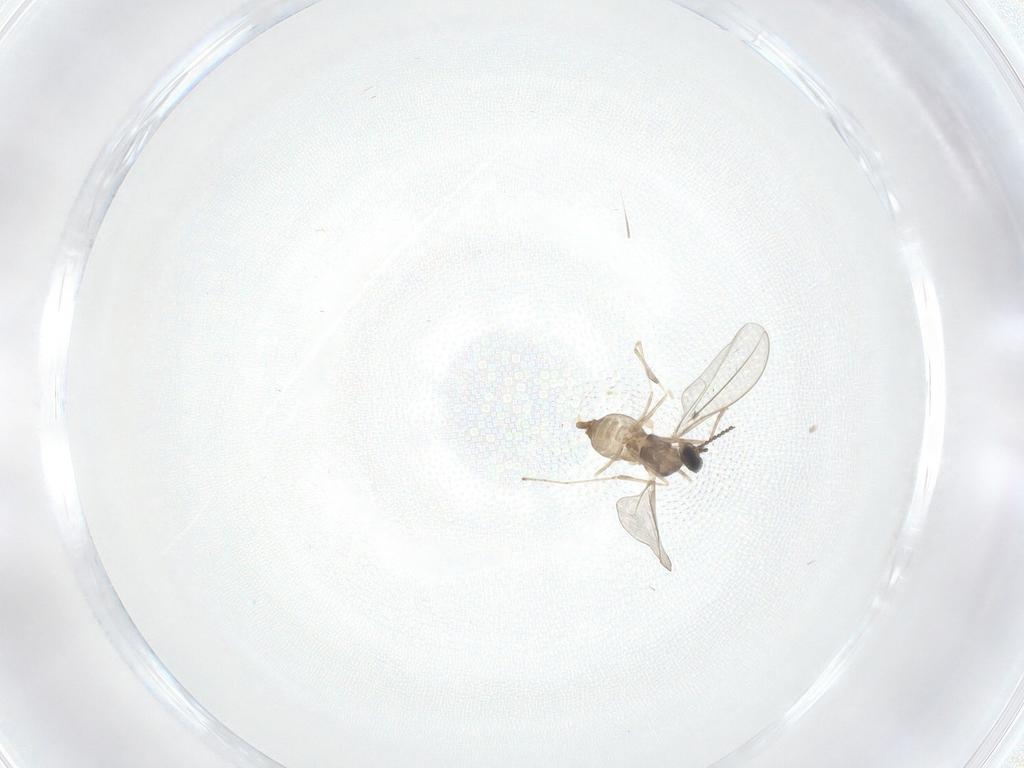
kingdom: Animalia
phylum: Arthropoda
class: Insecta
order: Diptera
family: Cecidomyiidae
